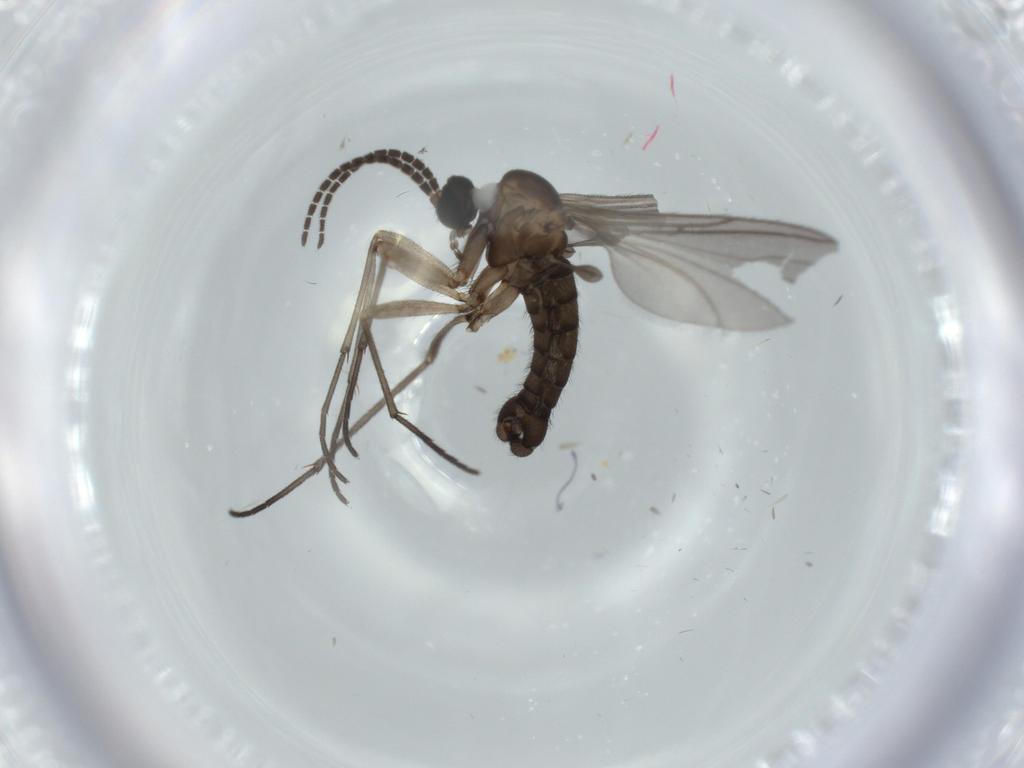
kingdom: Animalia
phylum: Arthropoda
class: Insecta
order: Diptera
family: Sciaridae
